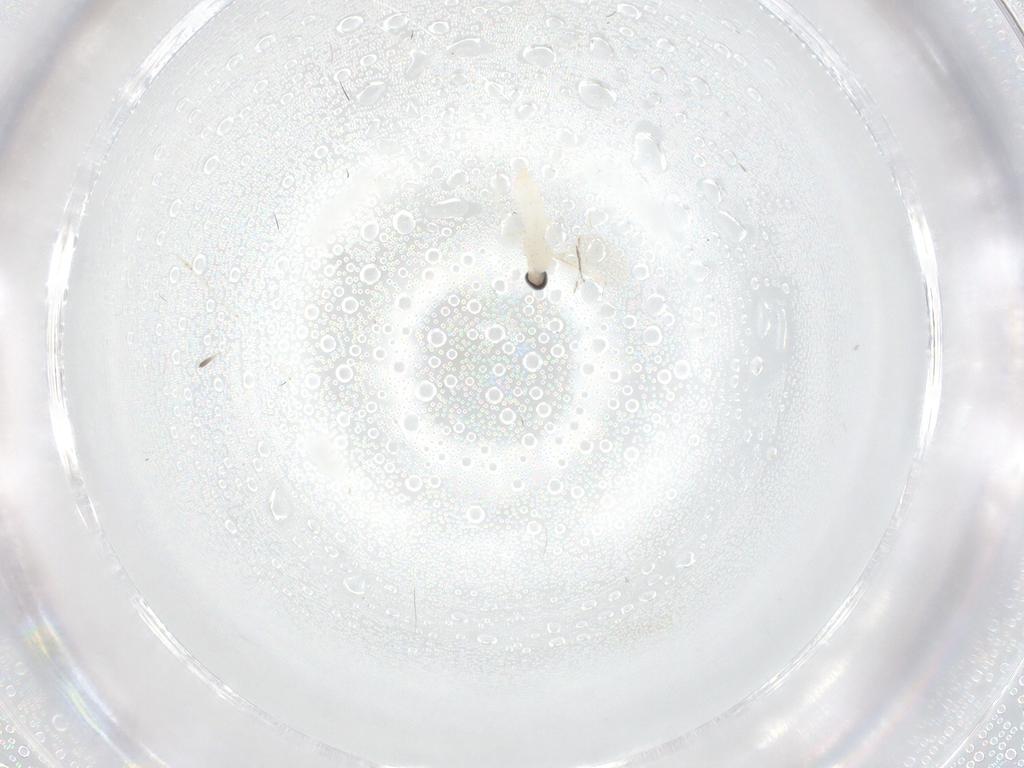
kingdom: Animalia
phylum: Arthropoda
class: Insecta
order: Diptera
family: Cecidomyiidae
